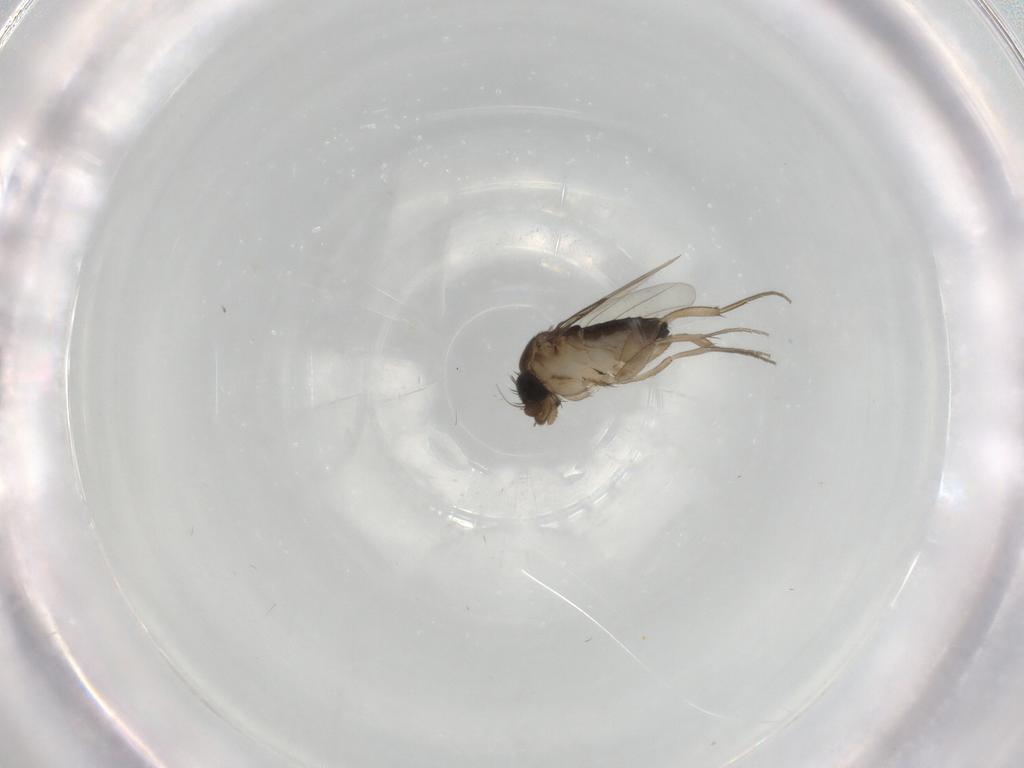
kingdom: Animalia
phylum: Arthropoda
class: Insecta
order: Diptera
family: Phoridae
